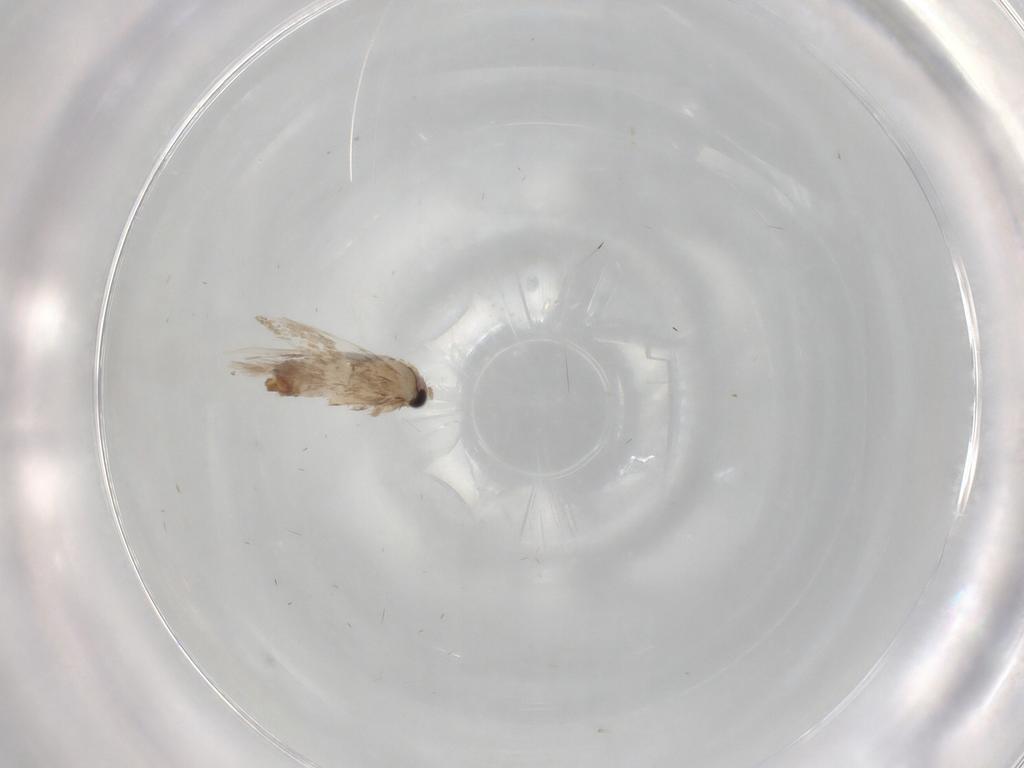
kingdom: Animalia
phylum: Arthropoda
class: Insecta
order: Lepidoptera
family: Nepticulidae
